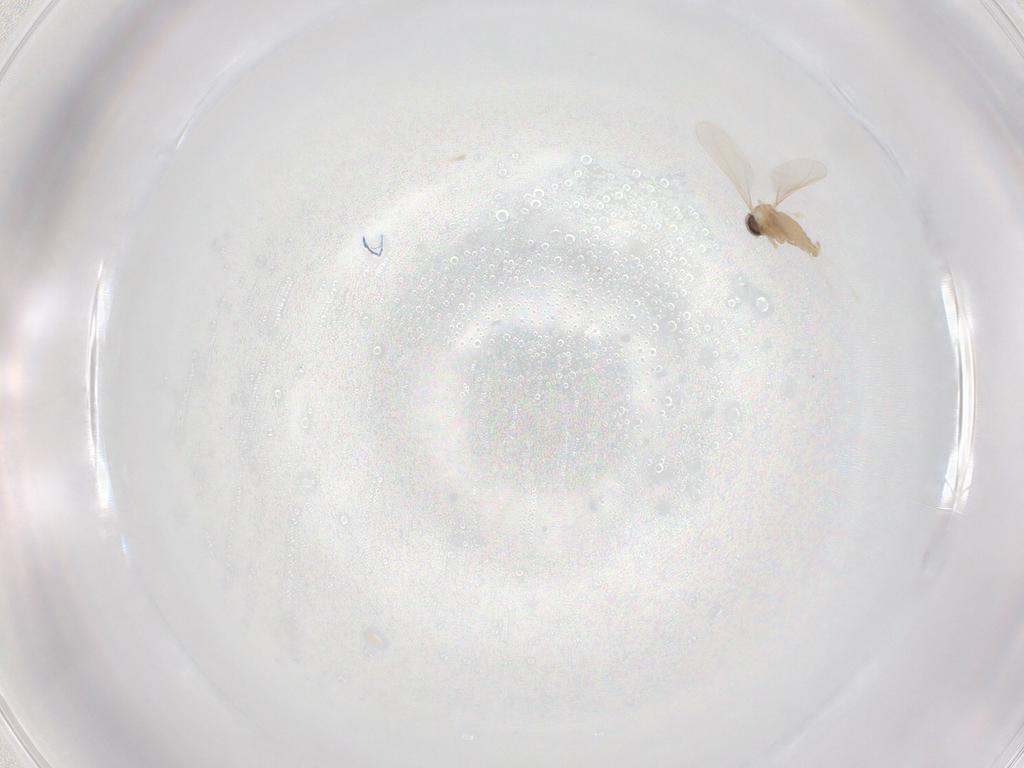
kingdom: Animalia
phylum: Arthropoda
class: Insecta
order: Diptera
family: Cecidomyiidae
